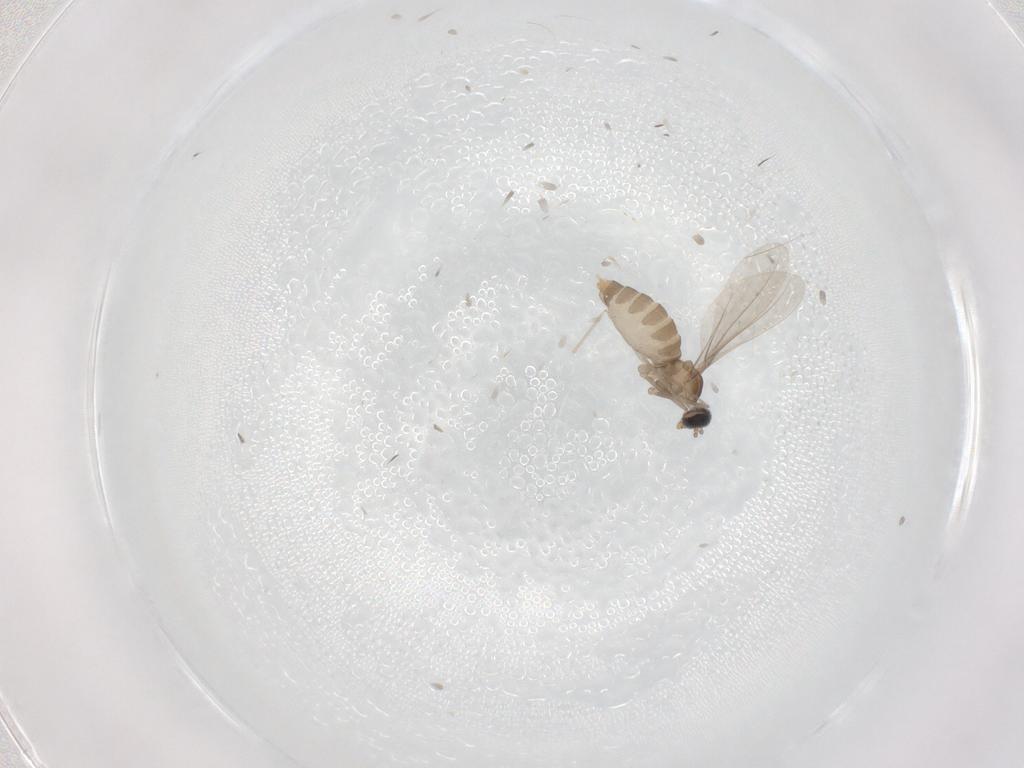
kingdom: Animalia
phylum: Arthropoda
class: Insecta
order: Diptera
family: Cecidomyiidae
